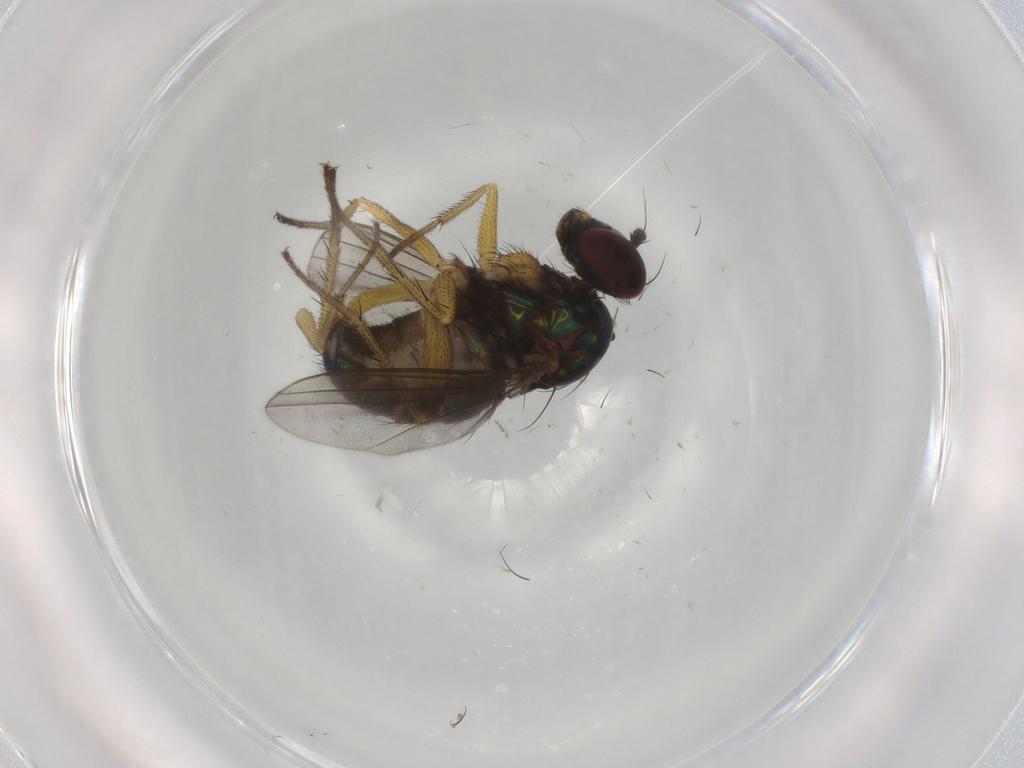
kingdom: Animalia
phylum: Arthropoda
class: Insecta
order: Diptera
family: Dolichopodidae
